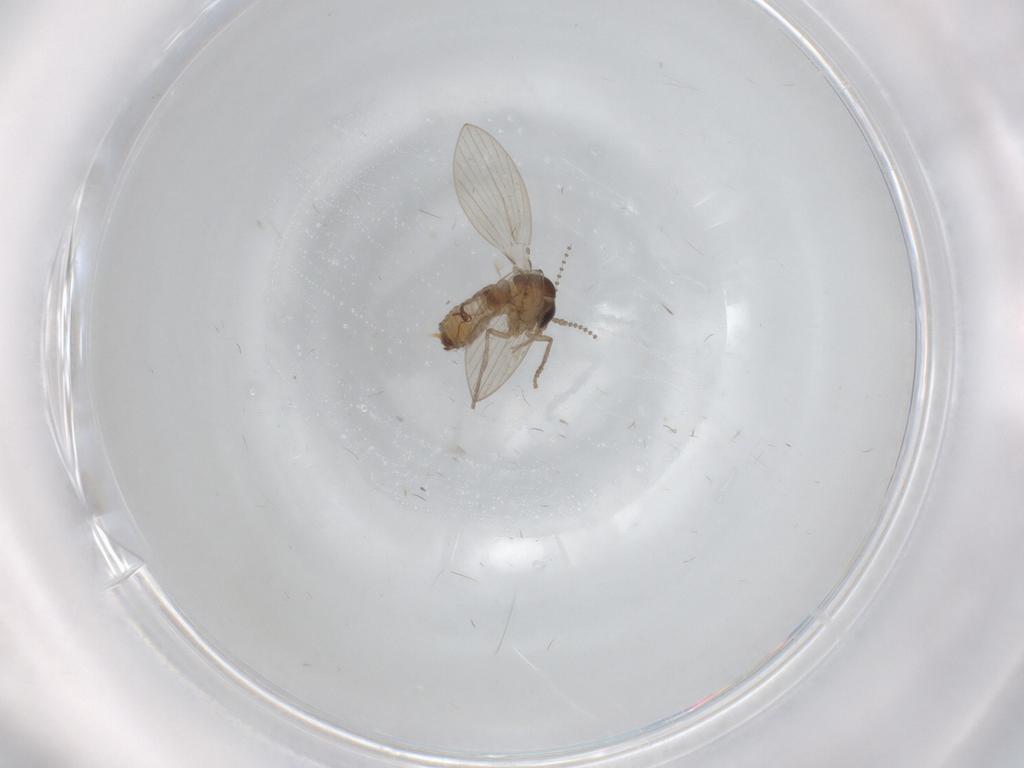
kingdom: Animalia
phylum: Arthropoda
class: Insecta
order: Diptera
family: Psychodidae
